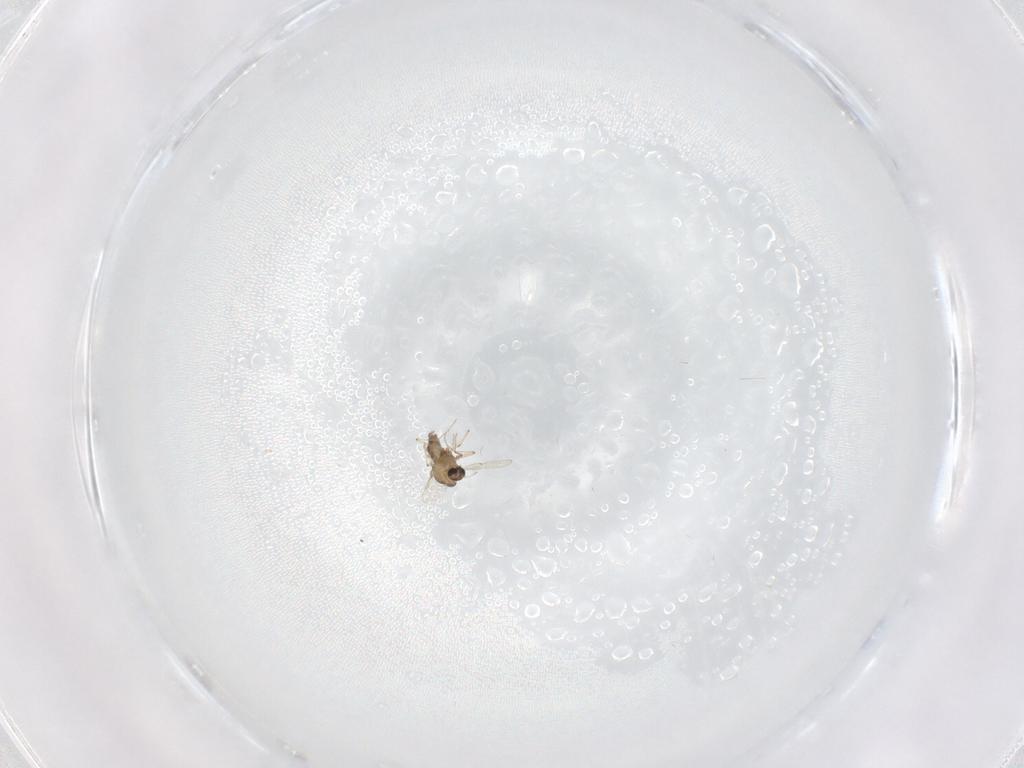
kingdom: Animalia
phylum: Arthropoda
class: Insecta
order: Diptera
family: Chironomidae
